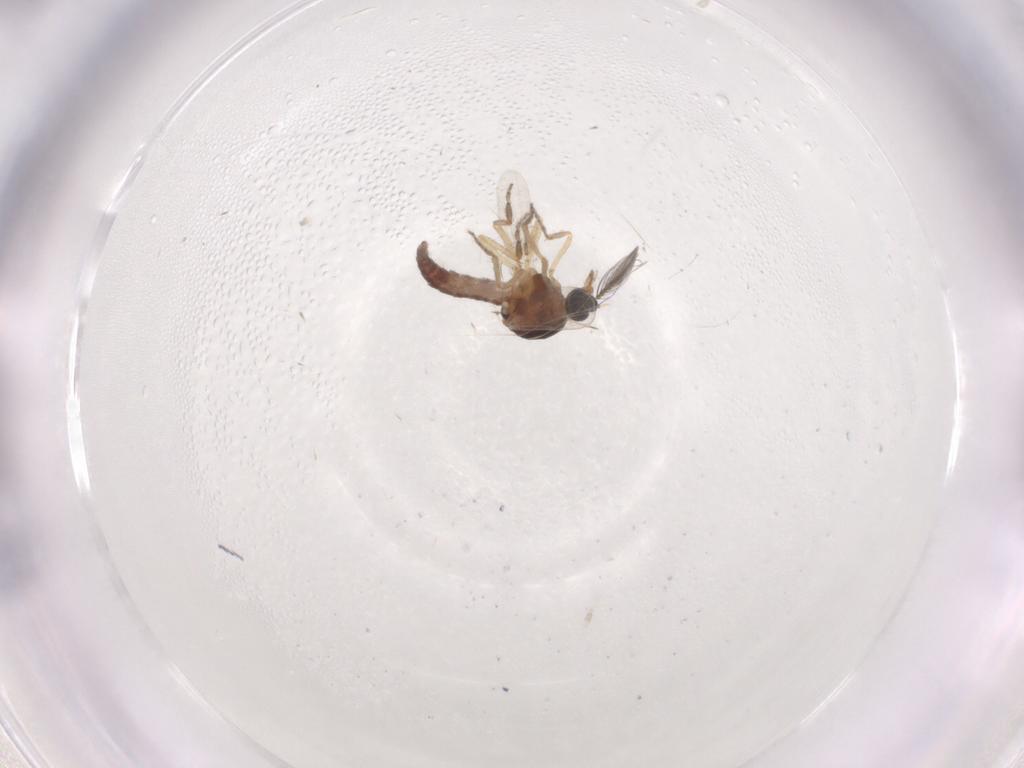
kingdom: Animalia
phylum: Arthropoda
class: Insecta
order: Diptera
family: Ceratopogonidae
